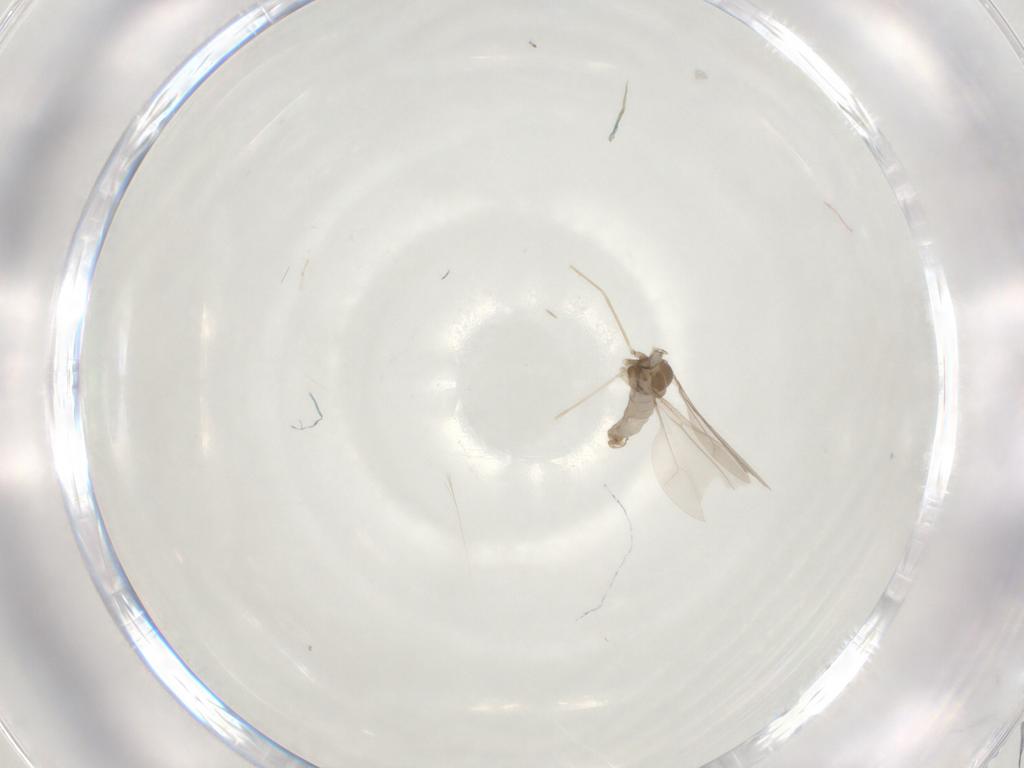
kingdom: Animalia
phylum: Arthropoda
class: Insecta
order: Diptera
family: Cecidomyiidae
